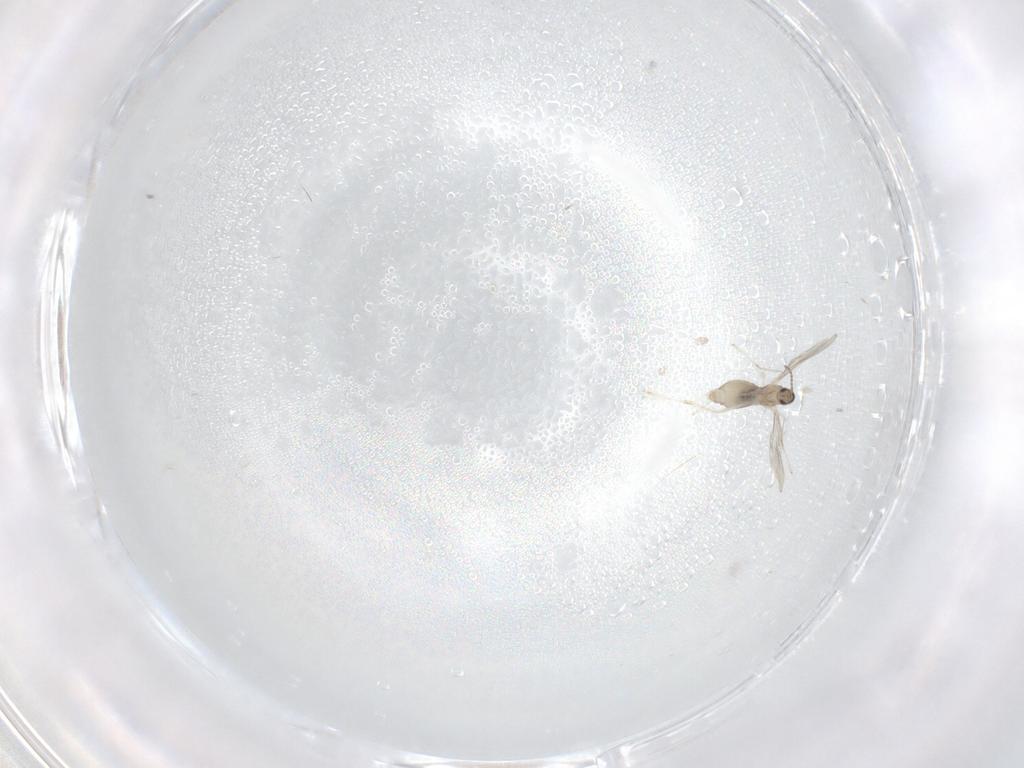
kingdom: Animalia
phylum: Arthropoda
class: Insecta
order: Diptera
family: Cecidomyiidae
